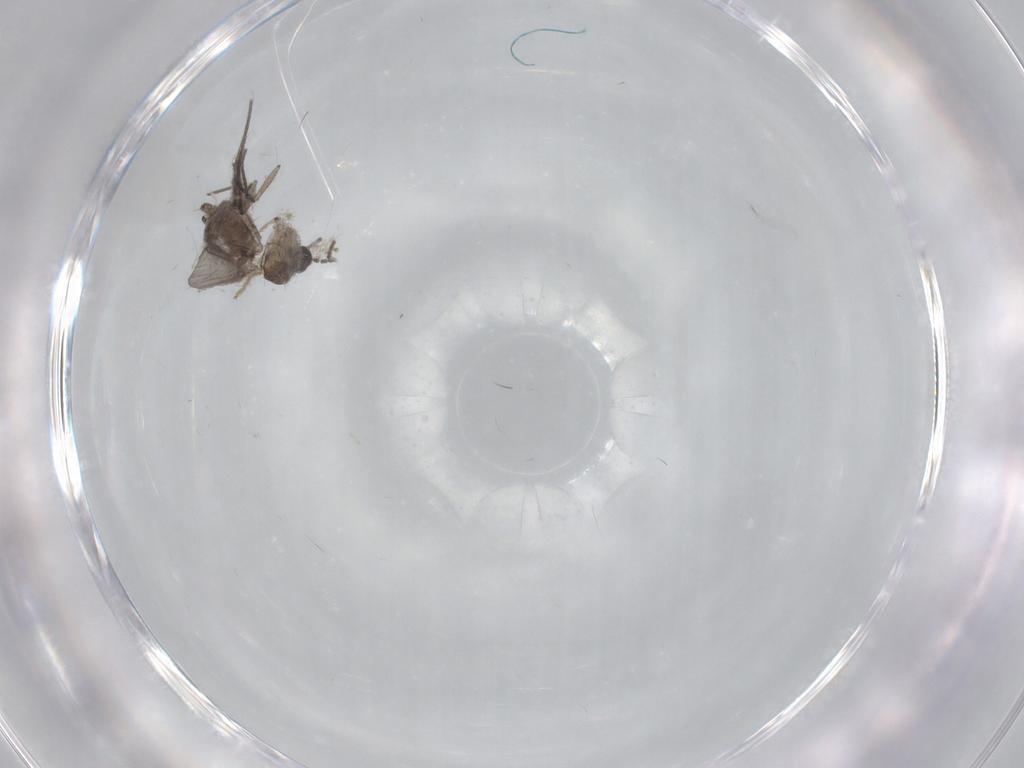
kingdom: Animalia
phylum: Arthropoda
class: Insecta
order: Diptera
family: Sciaridae
